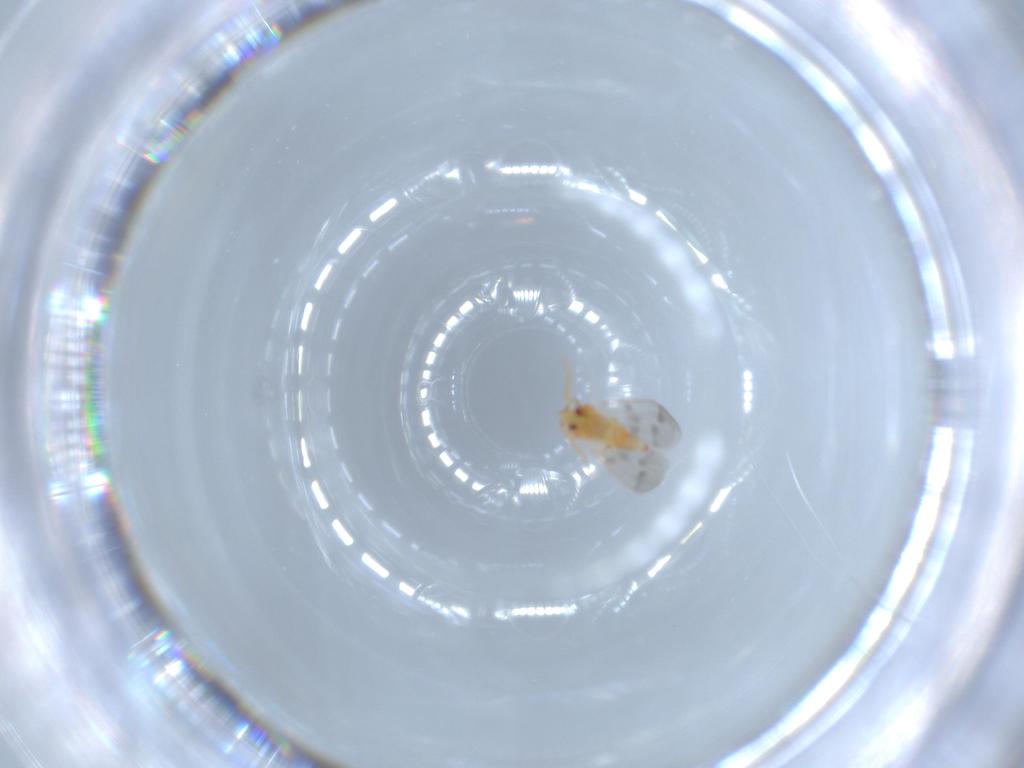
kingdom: Animalia
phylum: Arthropoda
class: Insecta
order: Hemiptera
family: Aleyrodidae
